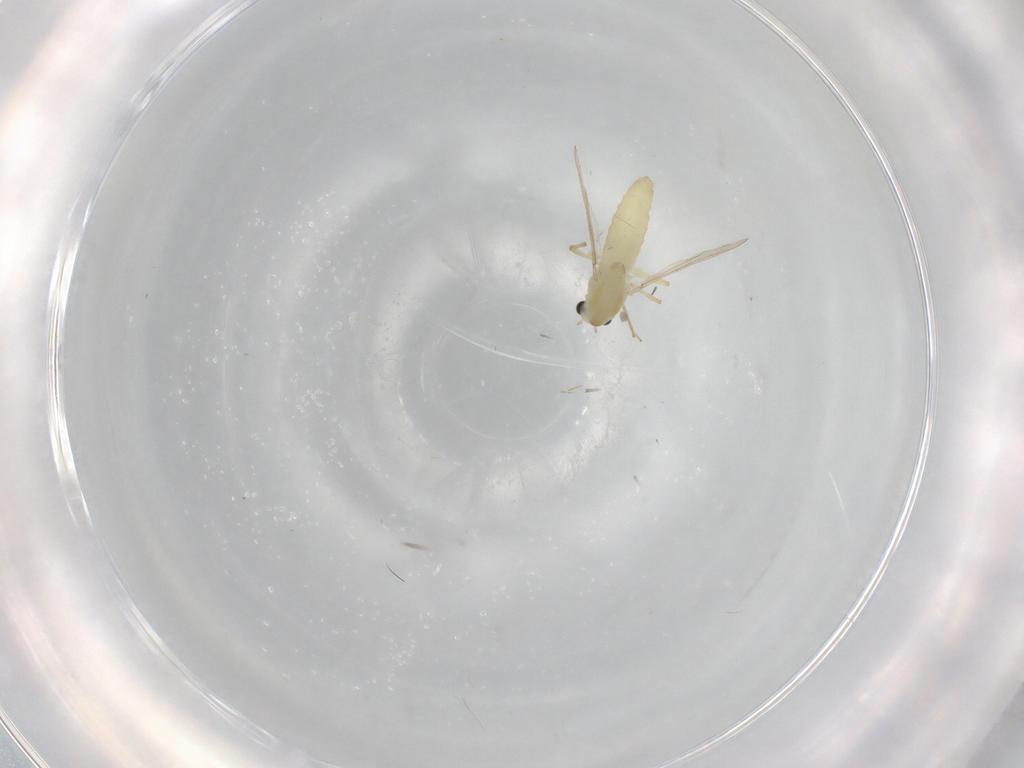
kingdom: Animalia
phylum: Arthropoda
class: Insecta
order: Diptera
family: Chironomidae
